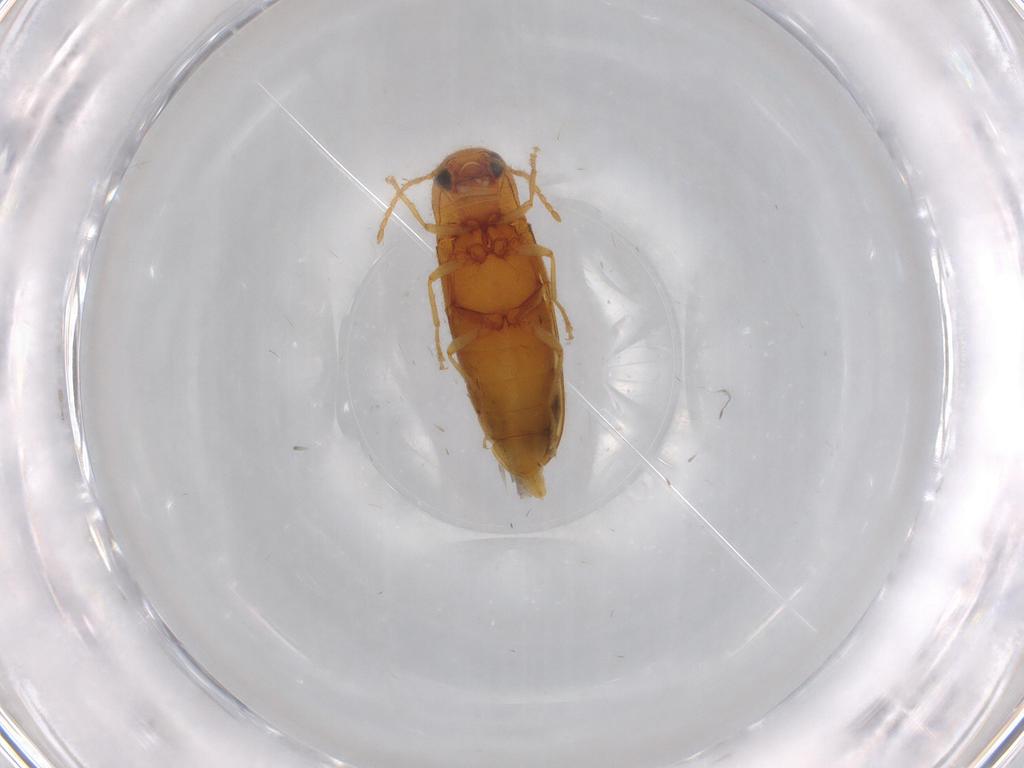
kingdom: Animalia
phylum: Arthropoda
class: Insecta
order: Coleoptera
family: Elateridae
